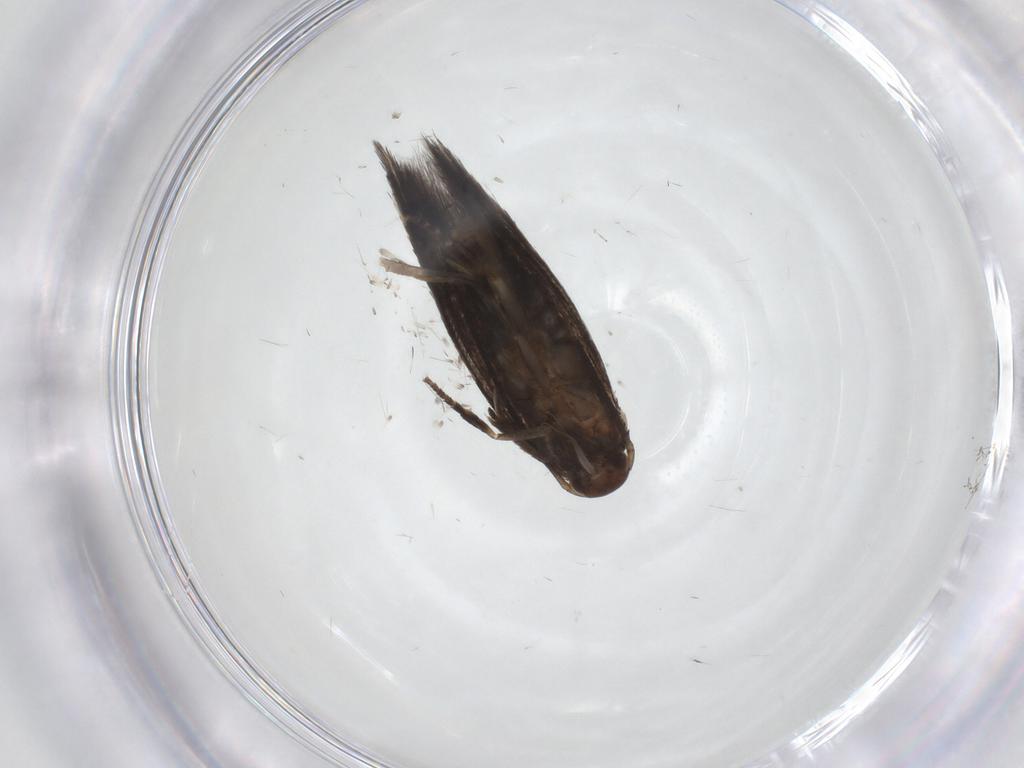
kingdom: Animalia
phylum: Arthropoda
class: Insecta
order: Lepidoptera
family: Elachistidae
